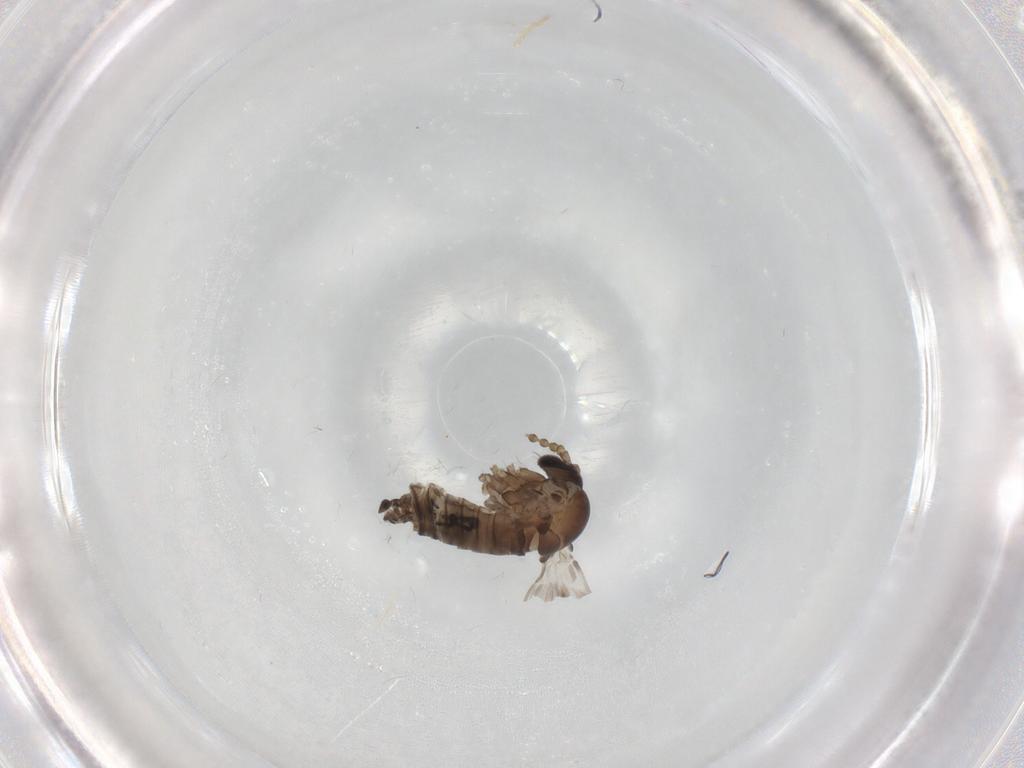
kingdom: Animalia
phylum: Arthropoda
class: Insecta
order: Diptera
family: Psychodidae
